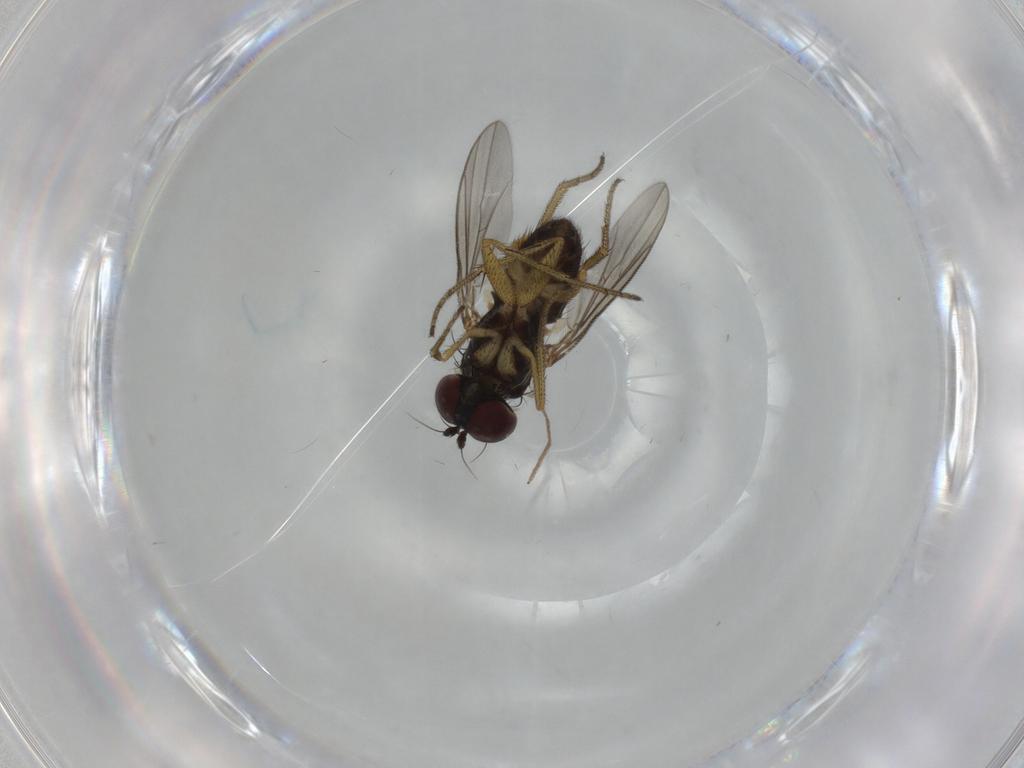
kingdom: Animalia
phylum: Arthropoda
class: Insecta
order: Diptera
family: Dolichopodidae
